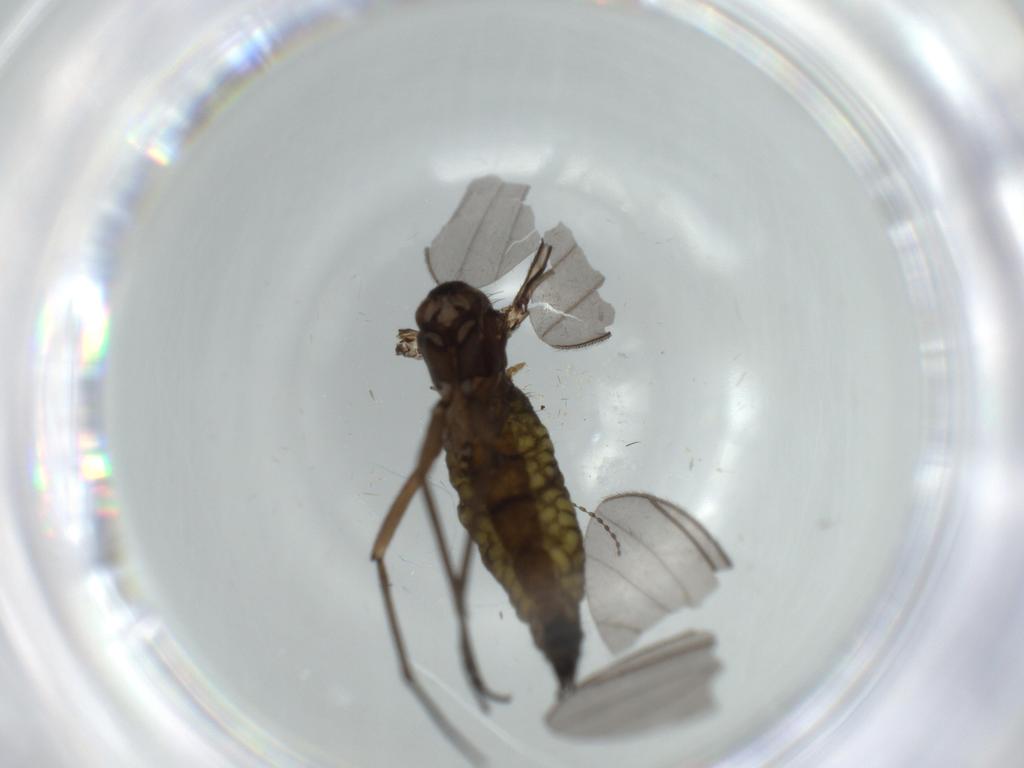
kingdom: Animalia
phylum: Arthropoda
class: Insecta
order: Diptera
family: Sciaridae
